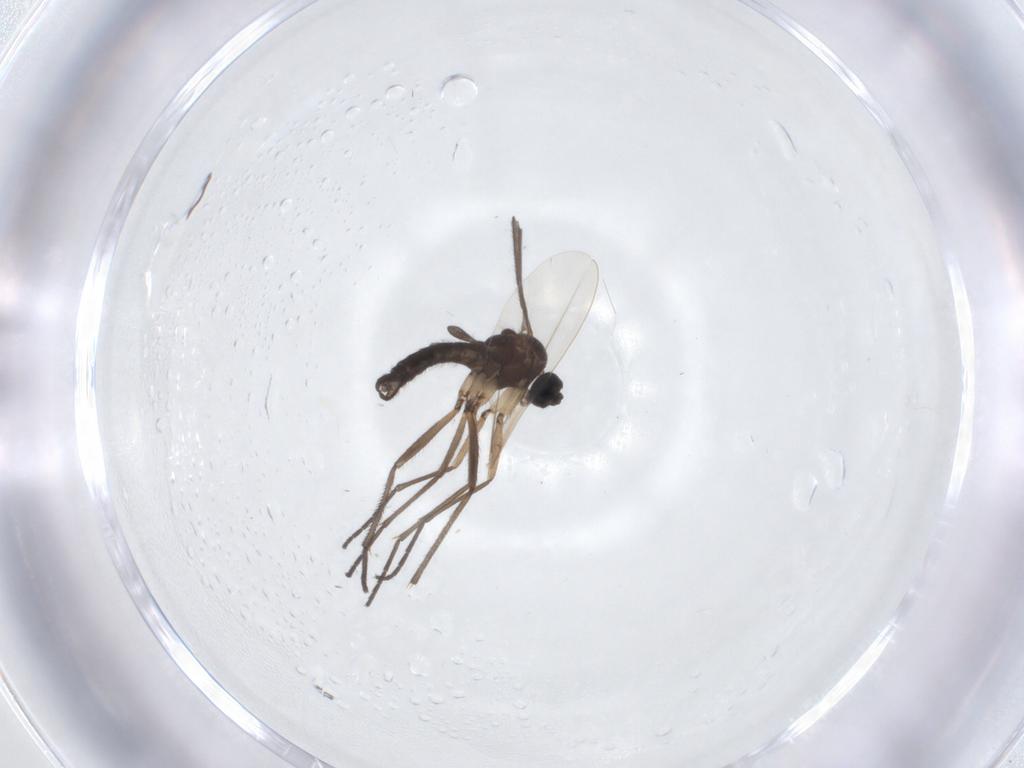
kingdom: Animalia
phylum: Arthropoda
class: Insecta
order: Diptera
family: Sciaridae
